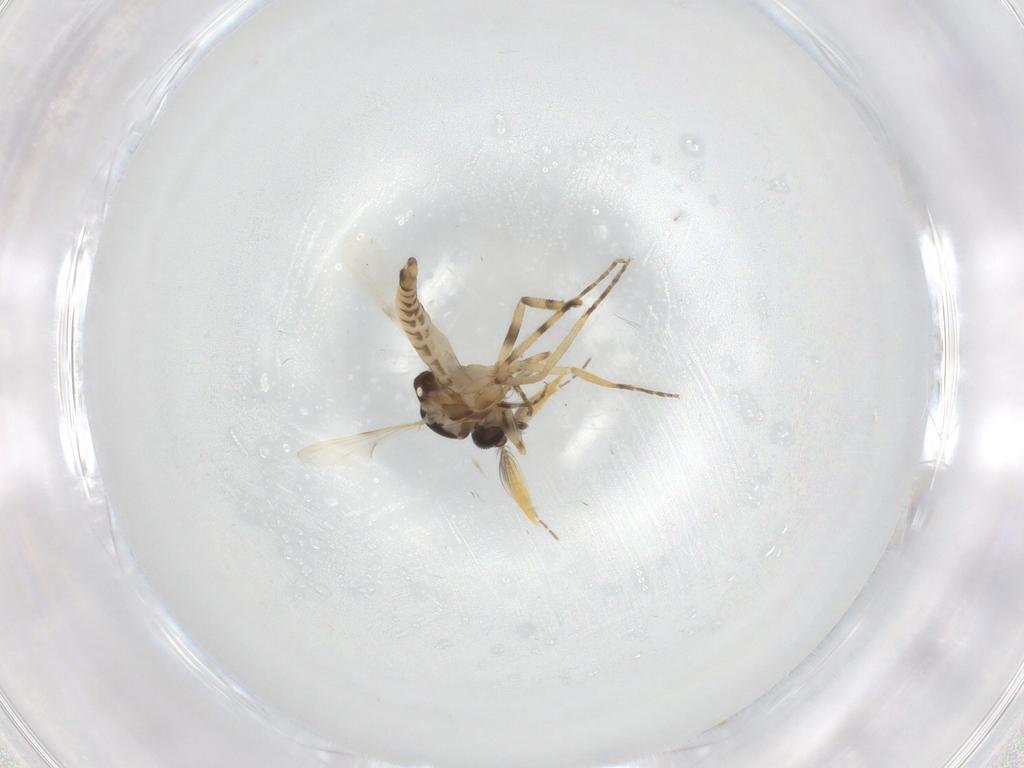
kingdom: Animalia
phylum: Arthropoda
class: Insecta
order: Diptera
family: Ceratopogonidae
